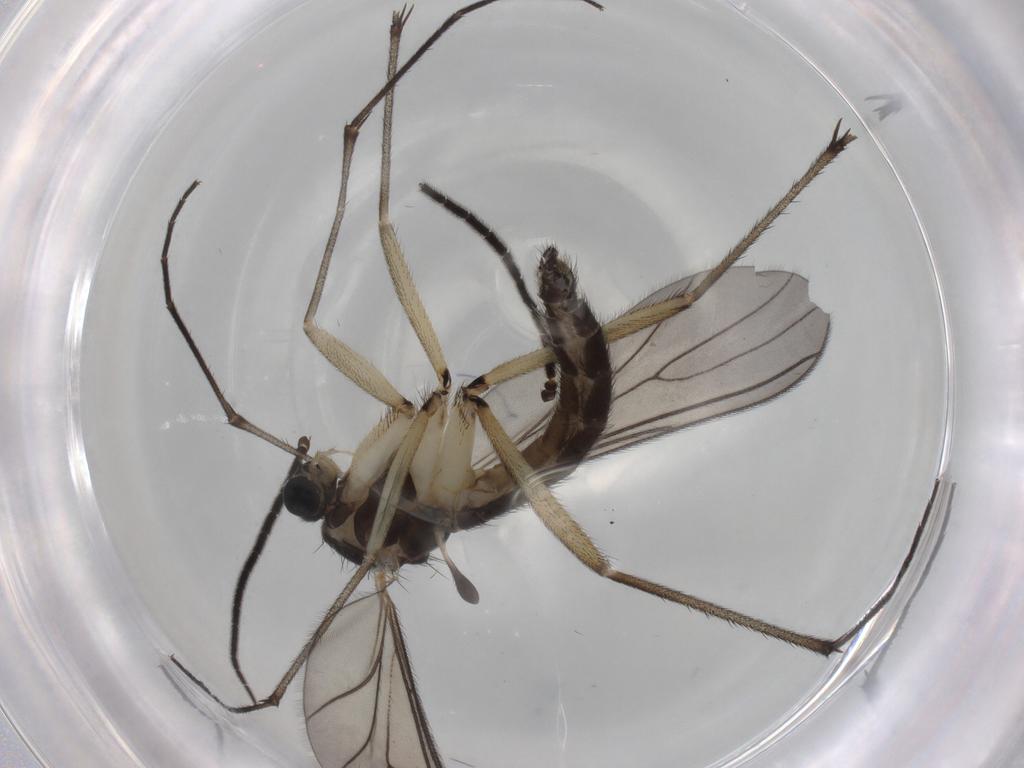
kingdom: Animalia
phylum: Arthropoda
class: Insecta
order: Diptera
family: Sciaridae
